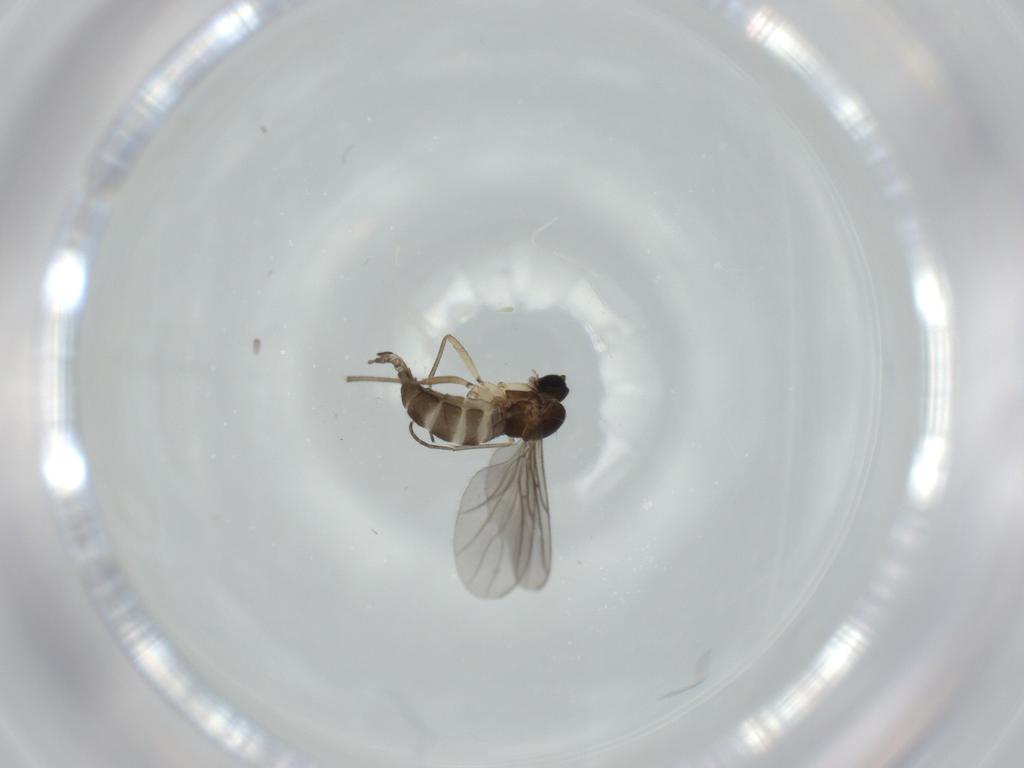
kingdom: Animalia
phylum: Arthropoda
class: Insecta
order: Diptera
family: Sciaridae
